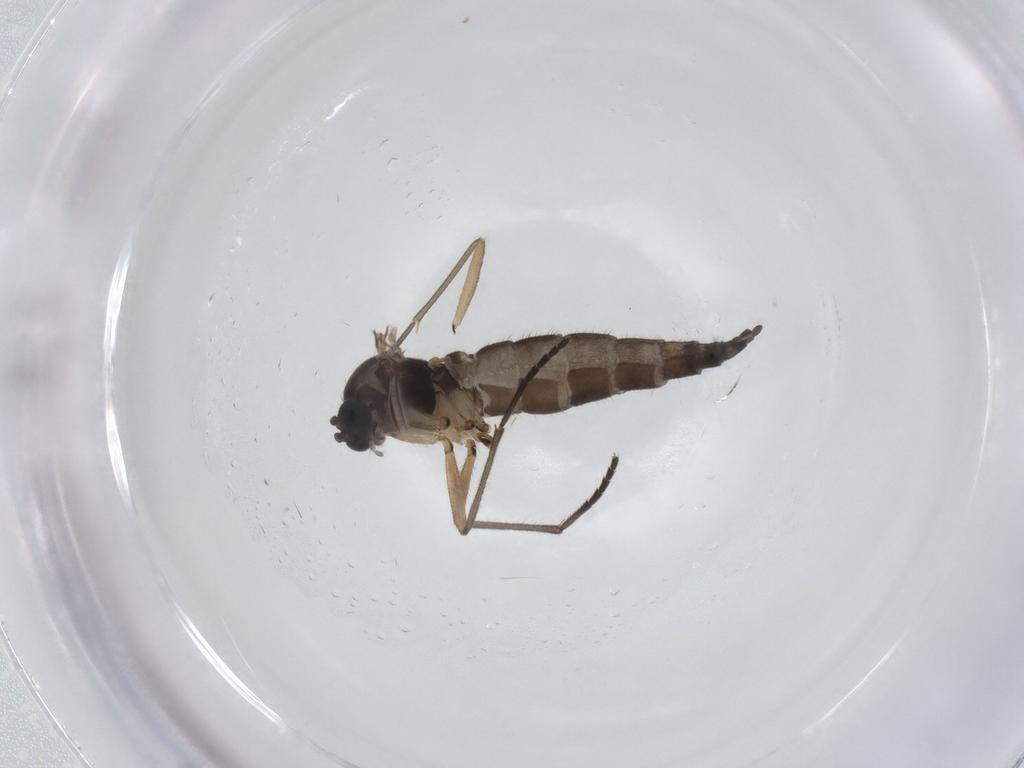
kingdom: Animalia
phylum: Arthropoda
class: Insecta
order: Diptera
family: Sciaridae
